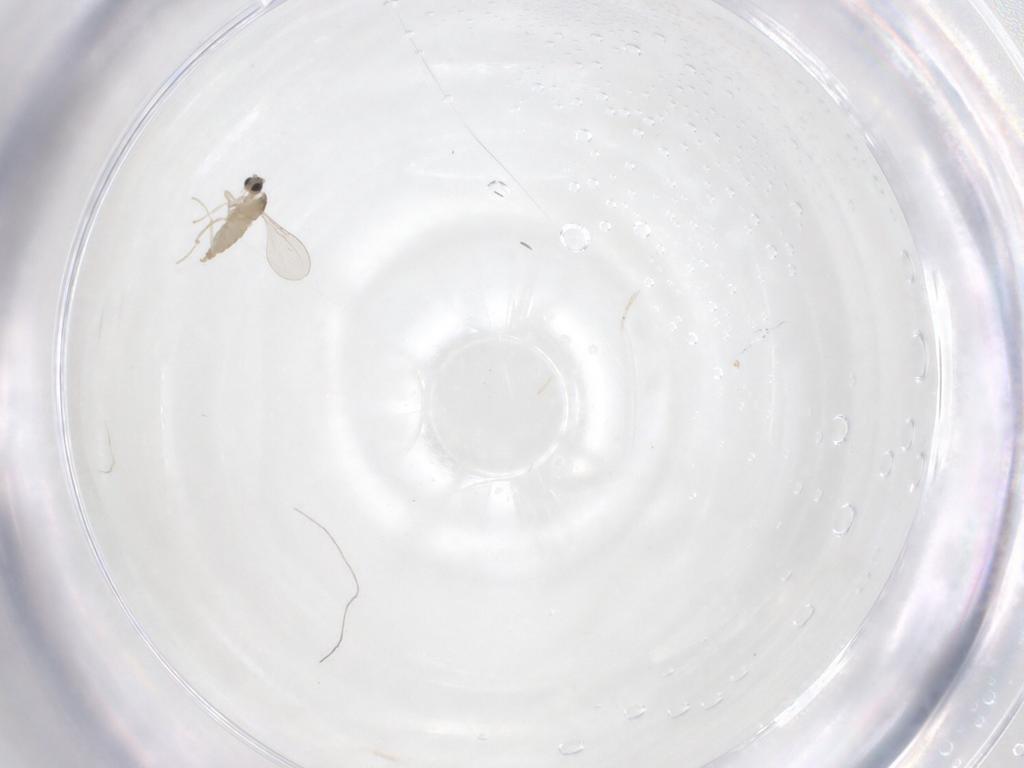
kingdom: Animalia
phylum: Arthropoda
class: Insecta
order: Diptera
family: Cecidomyiidae
